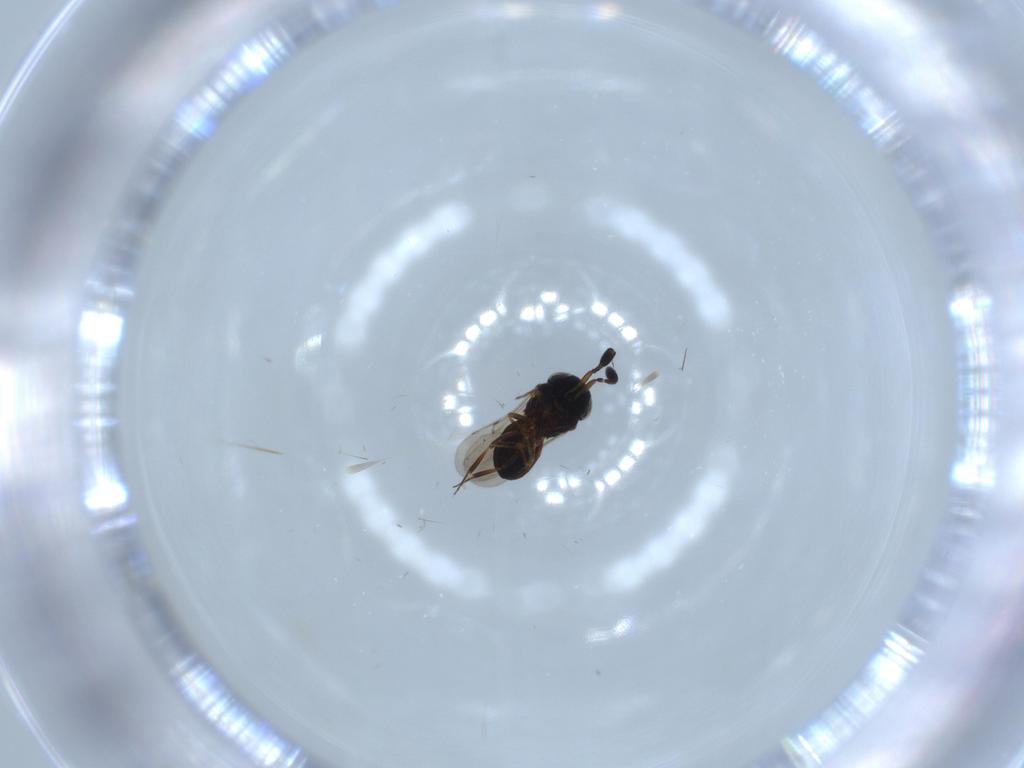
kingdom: Animalia
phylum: Arthropoda
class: Insecta
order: Hymenoptera
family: Scelionidae
